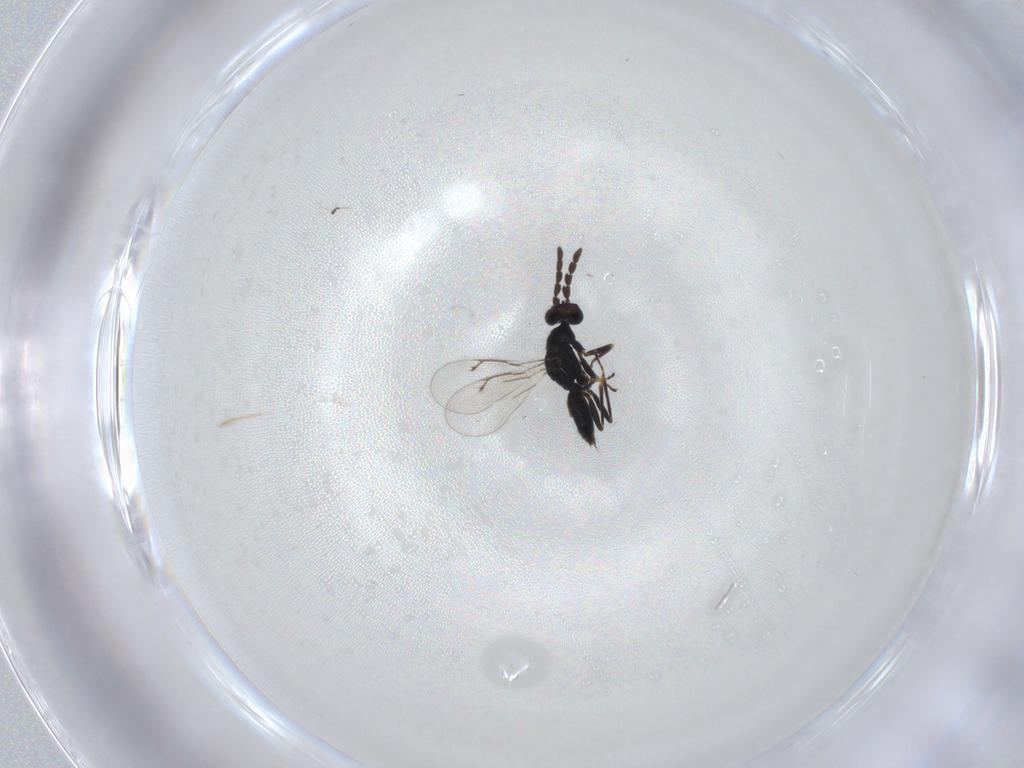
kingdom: Animalia
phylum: Arthropoda
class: Insecta
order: Hymenoptera
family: Eulophidae
